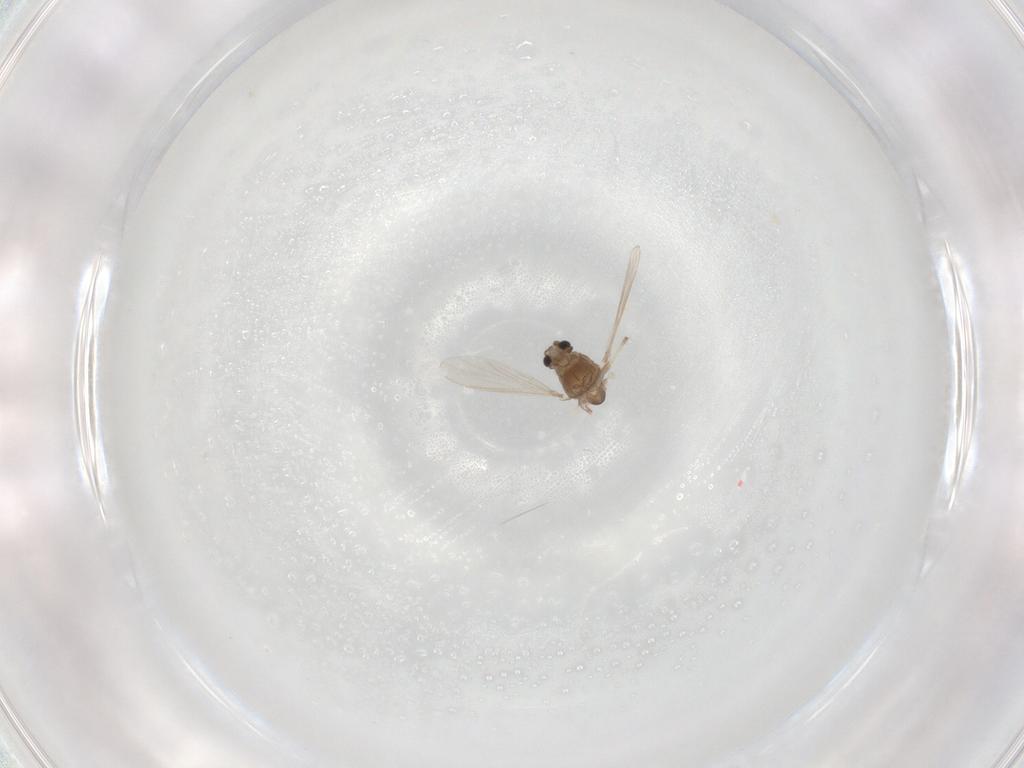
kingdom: Animalia
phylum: Arthropoda
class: Insecta
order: Diptera
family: Chironomidae
